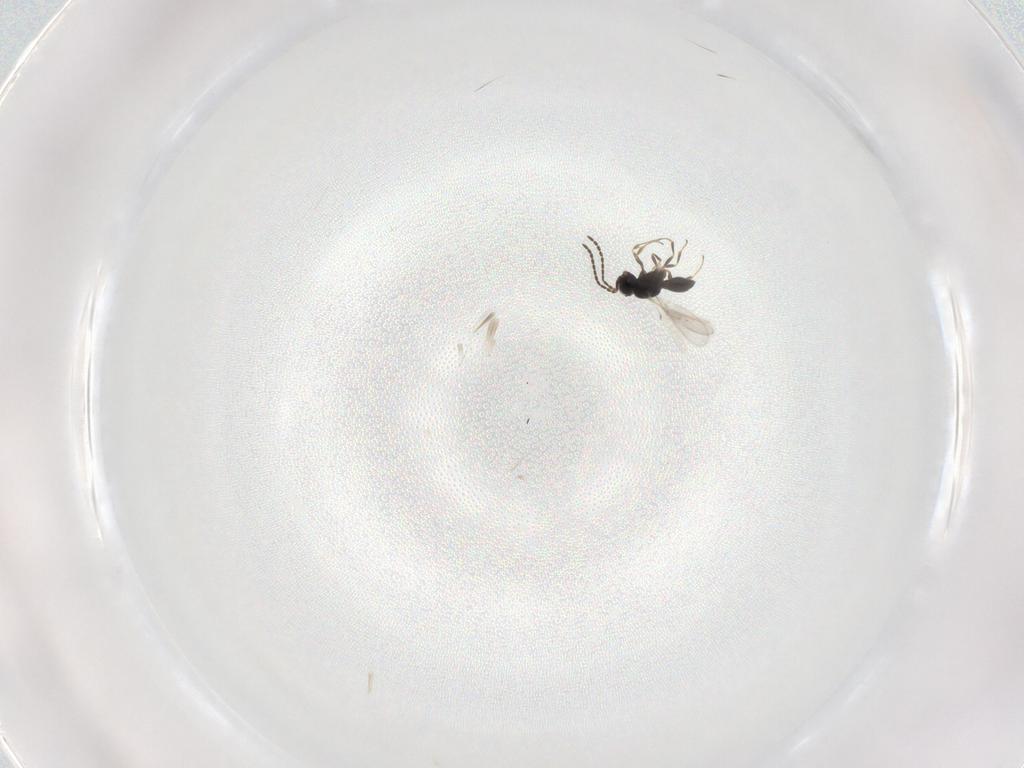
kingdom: Animalia
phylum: Arthropoda
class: Insecta
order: Hymenoptera
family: Scelionidae
